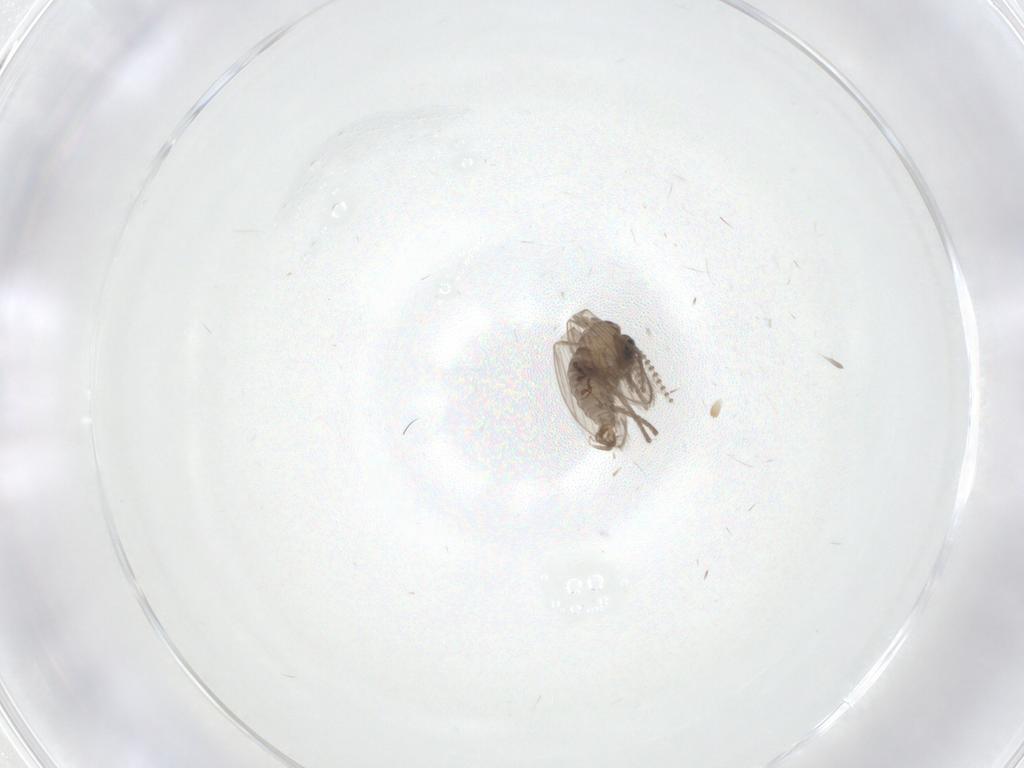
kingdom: Animalia
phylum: Arthropoda
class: Insecta
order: Diptera
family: Psychodidae
